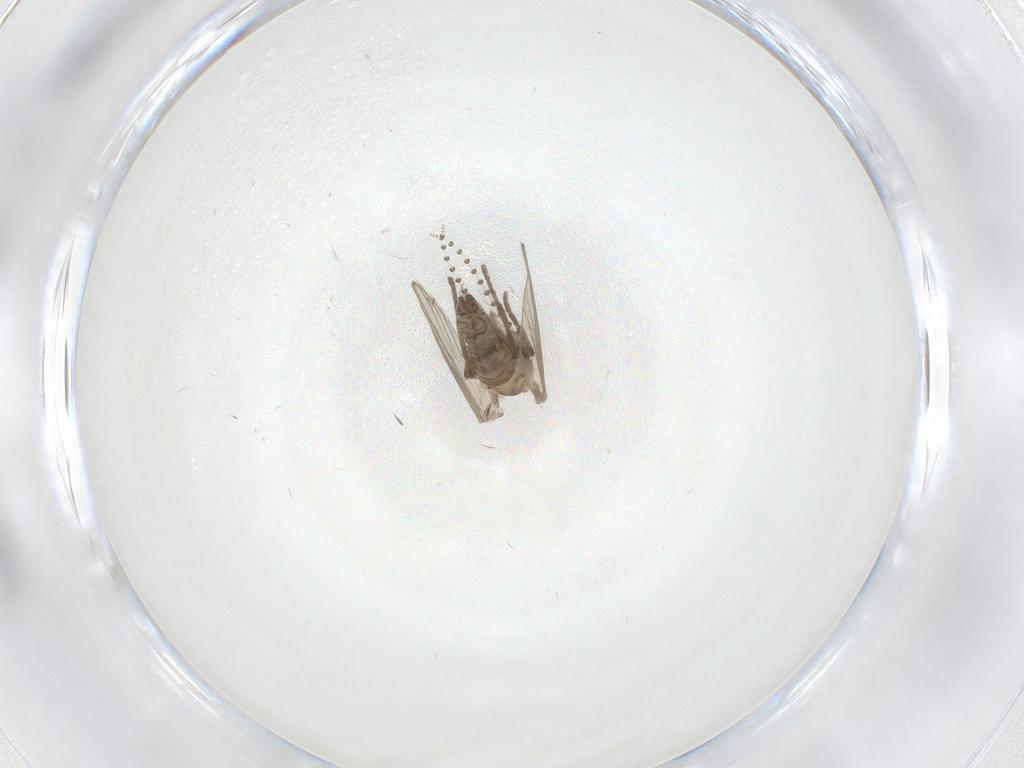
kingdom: Animalia
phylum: Arthropoda
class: Insecta
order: Diptera
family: Psychodidae
